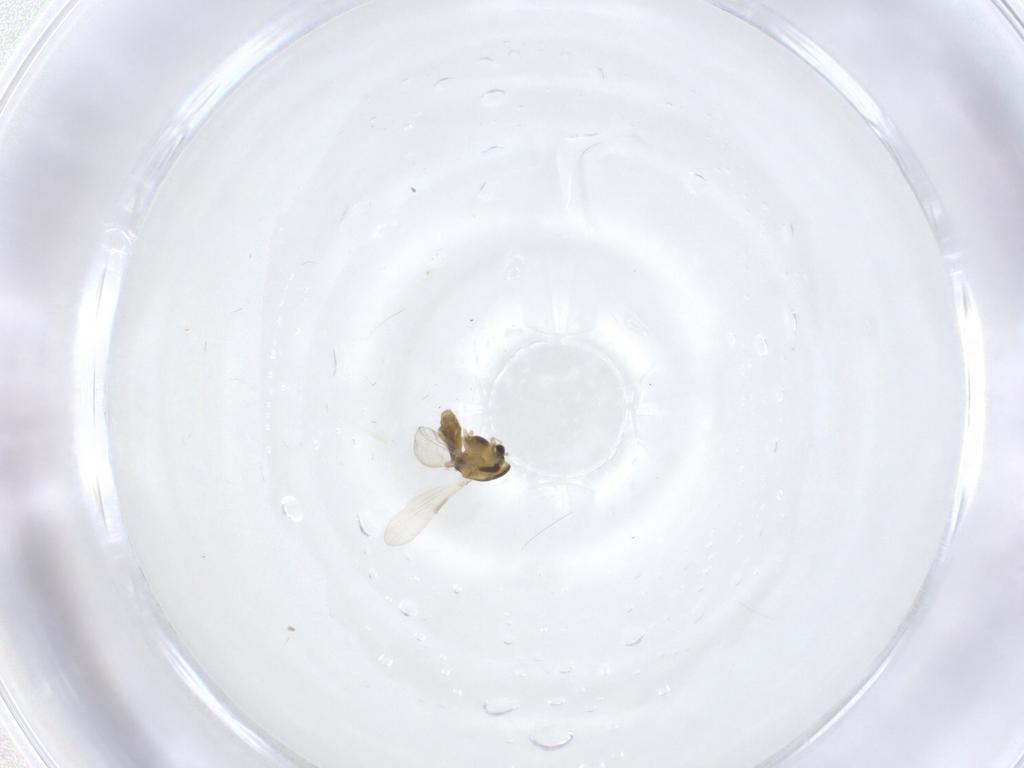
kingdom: Animalia
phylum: Arthropoda
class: Insecta
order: Diptera
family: Chironomidae
